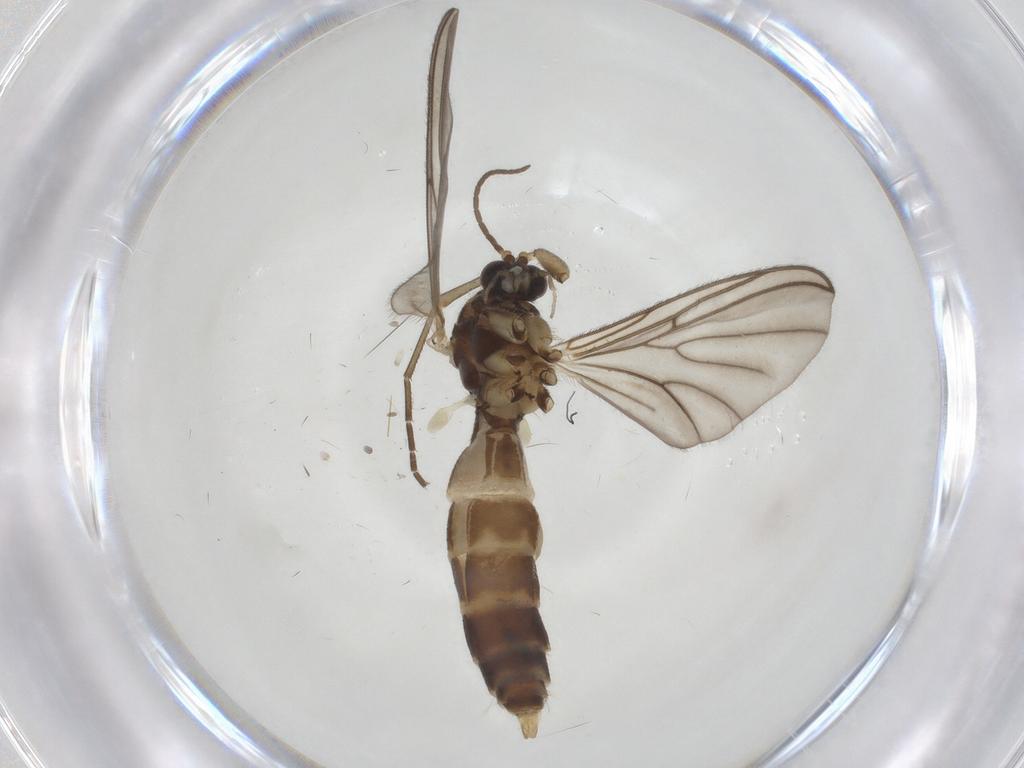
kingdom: Animalia
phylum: Arthropoda
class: Insecta
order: Diptera
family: Mycetophilidae
